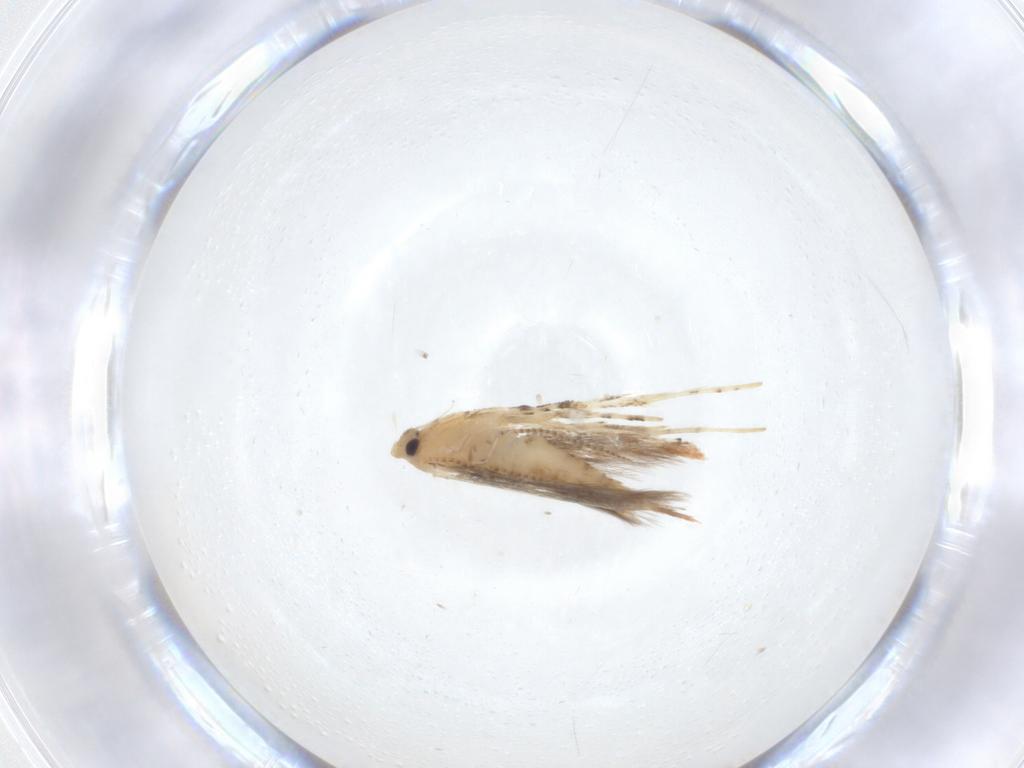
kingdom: Animalia
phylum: Arthropoda
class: Insecta
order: Lepidoptera
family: Gracillariidae
